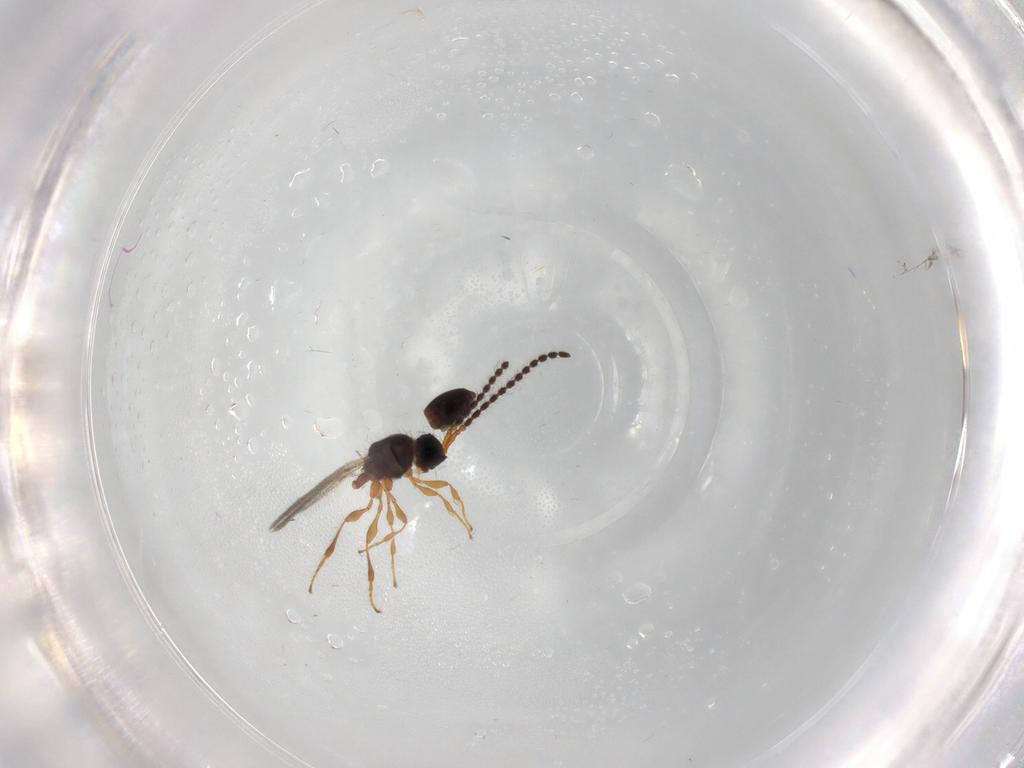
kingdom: Animalia
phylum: Arthropoda
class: Insecta
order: Hymenoptera
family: Diapriidae
